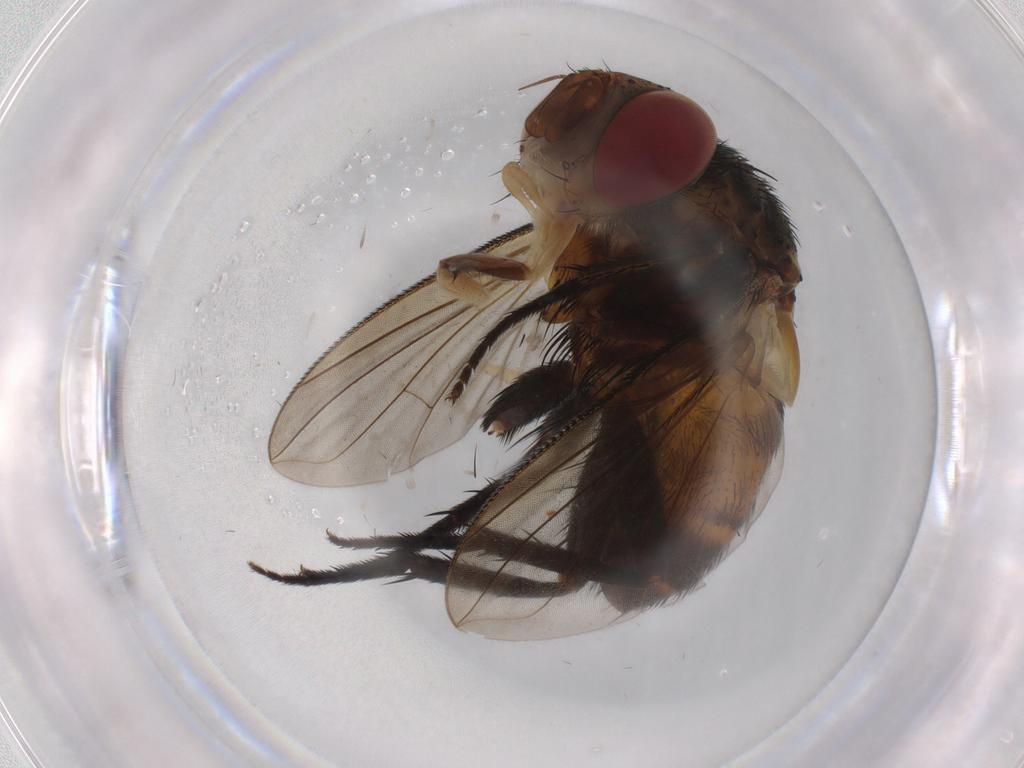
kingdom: Animalia
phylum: Arthropoda
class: Insecta
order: Diptera
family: Tachinidae
